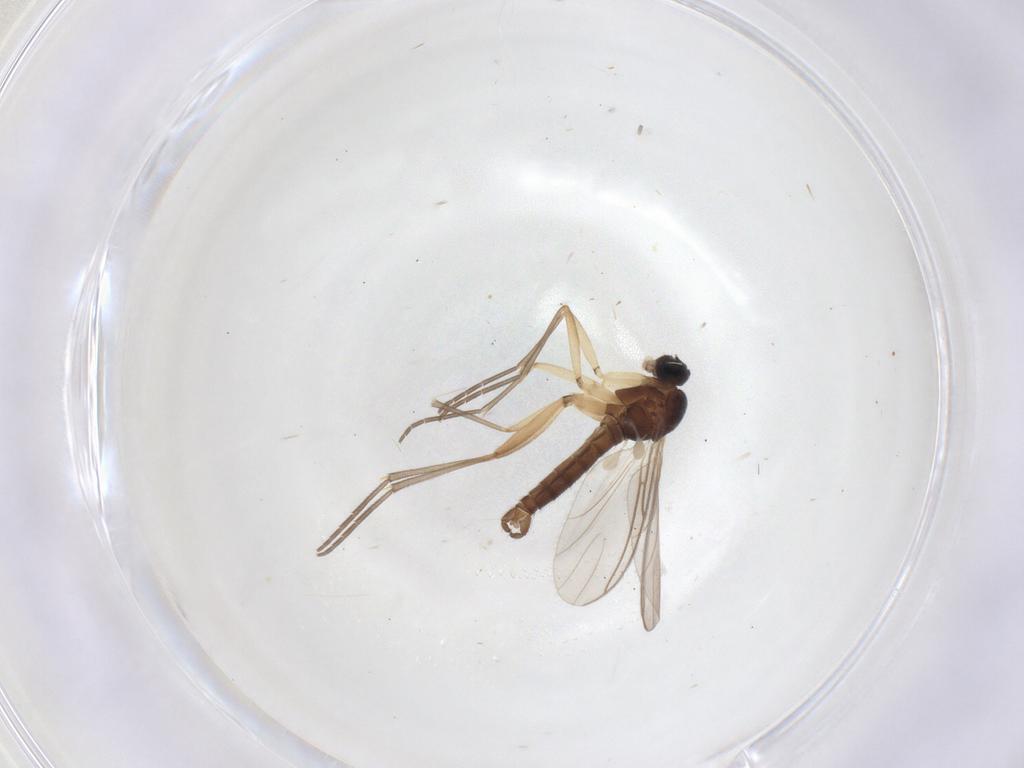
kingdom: Animalia
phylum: Arthropoda
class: Insecta
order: Diptera
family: Sciaridae
